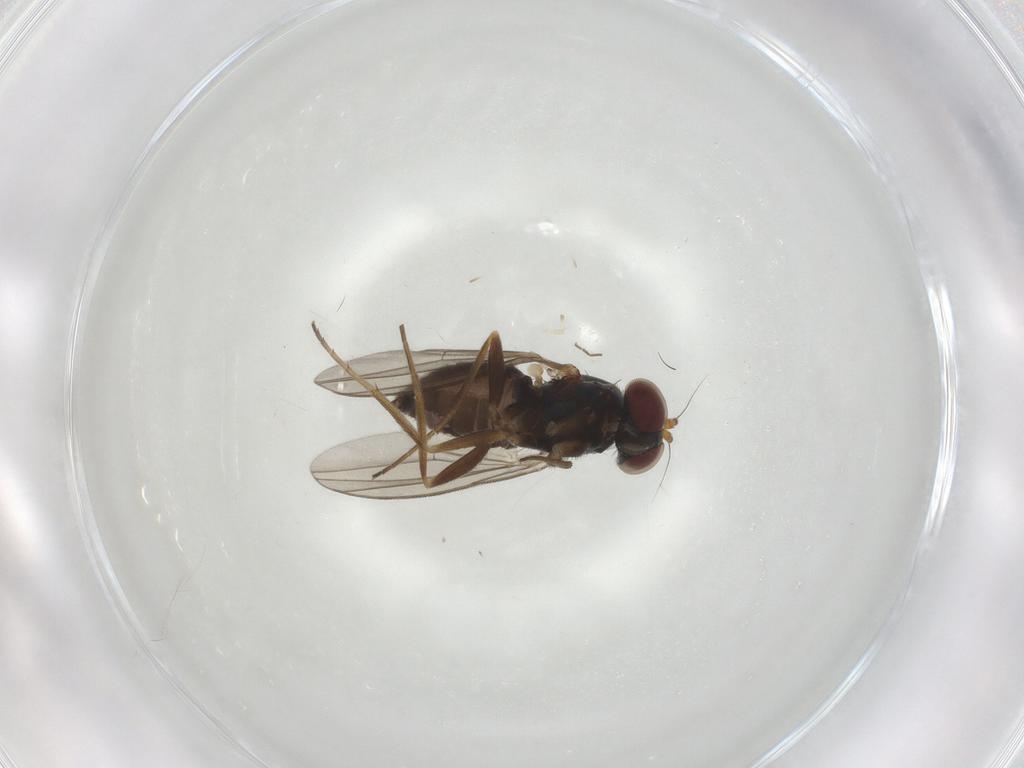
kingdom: Animalia
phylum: Arthropoda
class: Insecta
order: Diptera
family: Dolichopodidae
